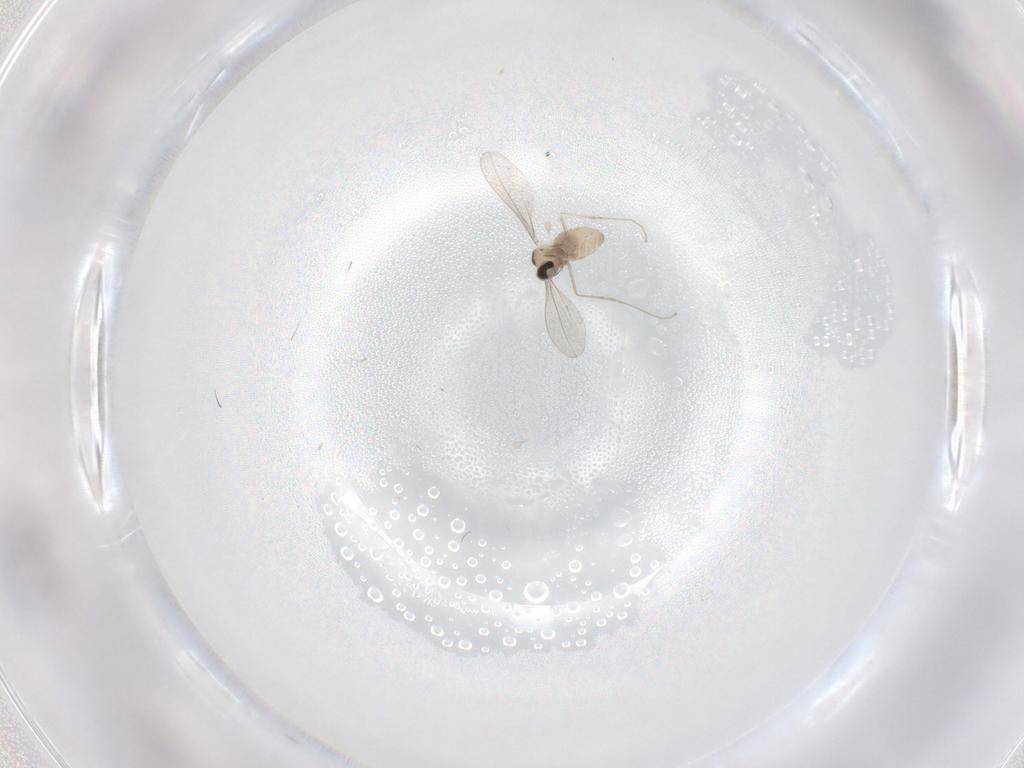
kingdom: Animalia
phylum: Arthropoda
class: Insecta
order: Diptera
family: Sciaridae
